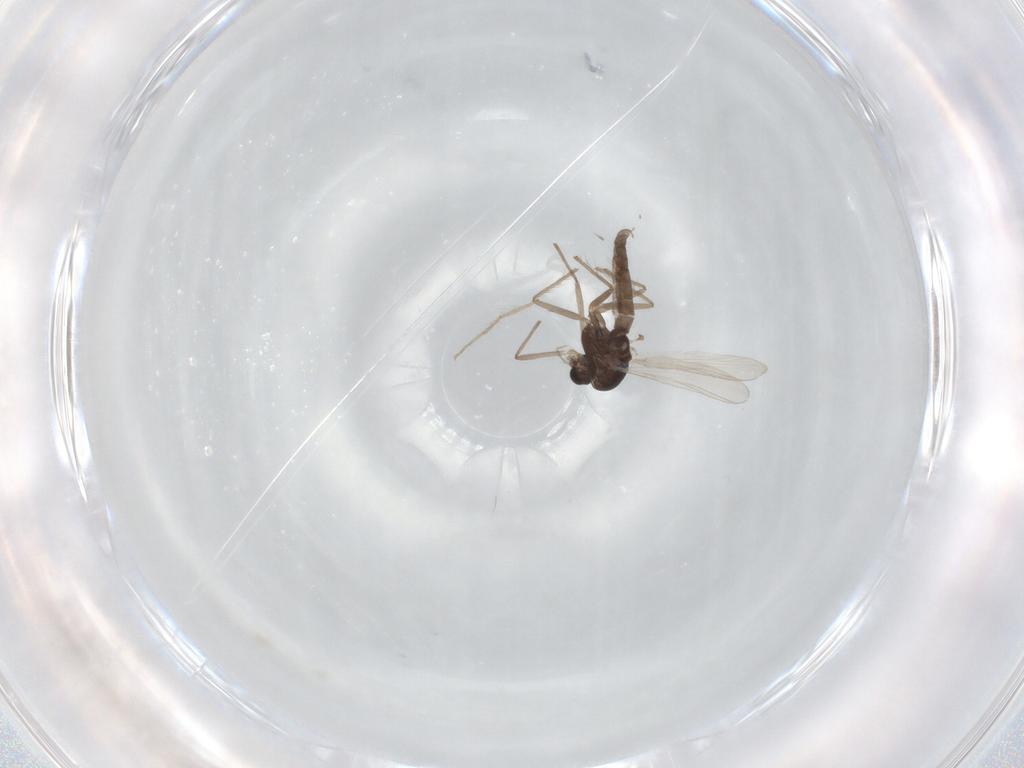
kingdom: Animalia
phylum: Arthropoda
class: Insecta
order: Diptera
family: Chironomidae
